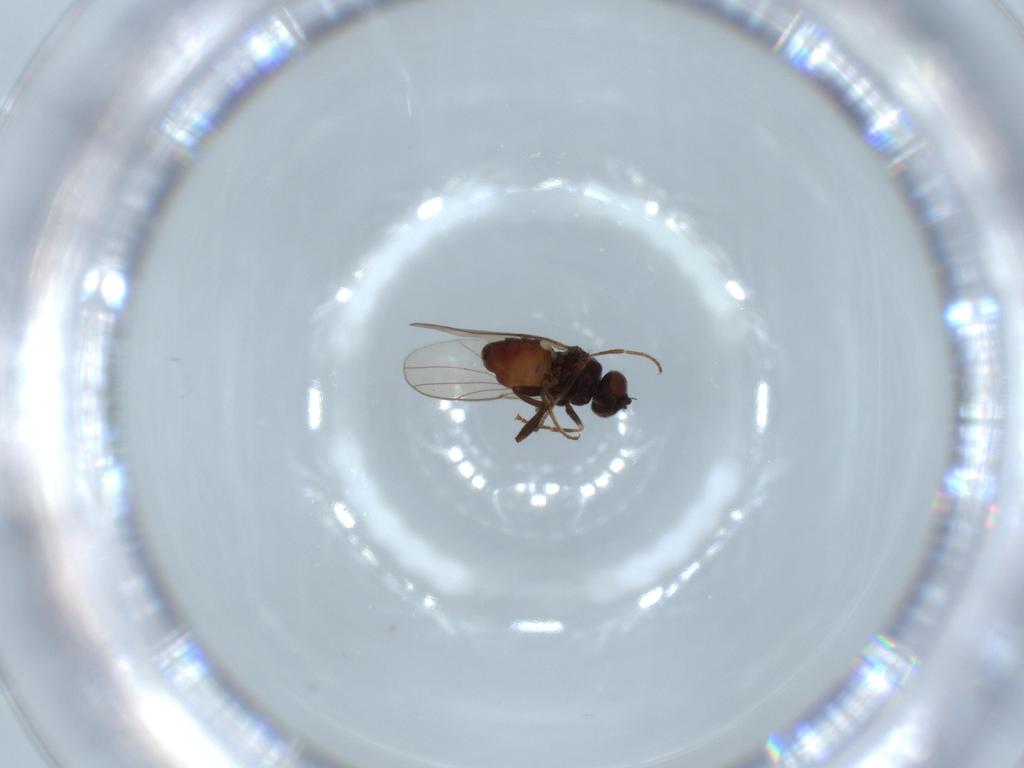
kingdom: Animalia
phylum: Arthropoda
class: Insecta
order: Diptera
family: Chloropidae
